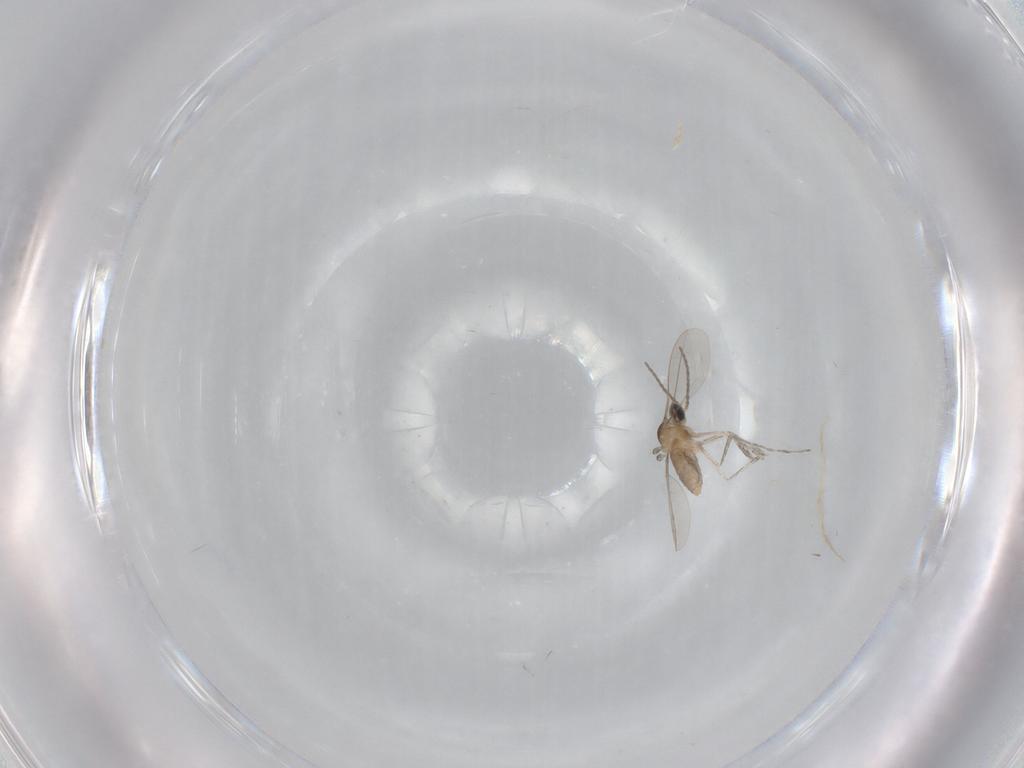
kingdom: Animalia
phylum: Arthropoda
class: Insecta
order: Diptera
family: Cecidomyiidae
